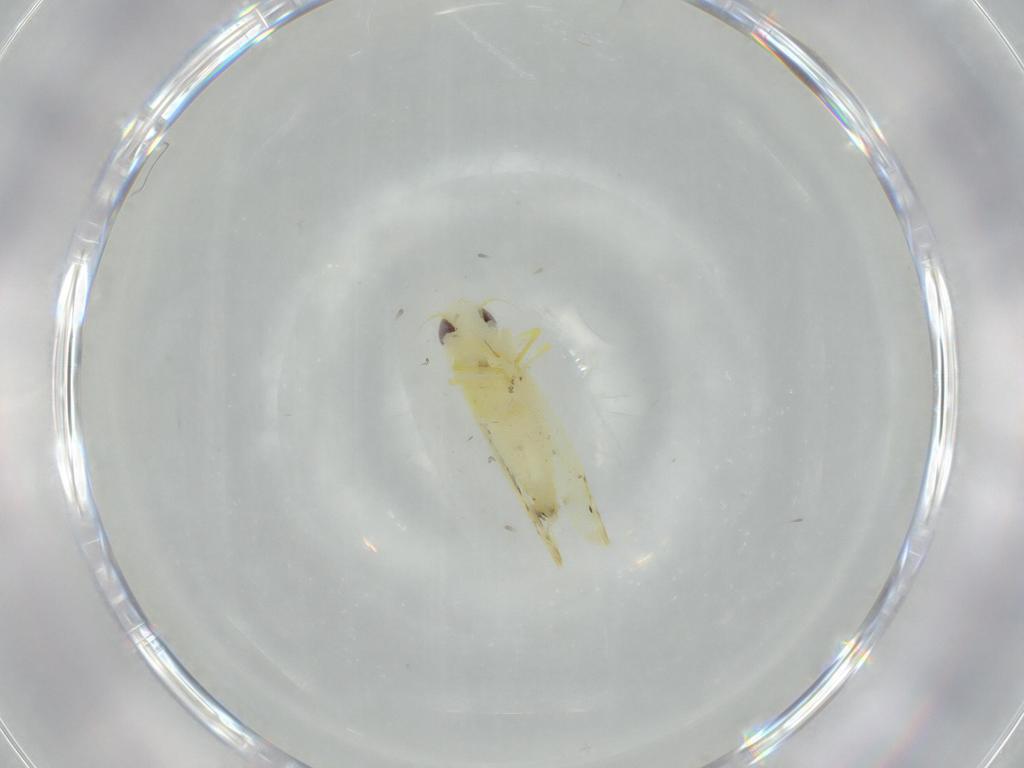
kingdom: Animalia
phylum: Arthropoda
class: Insecta
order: Hemiptera
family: Cicadellidae
